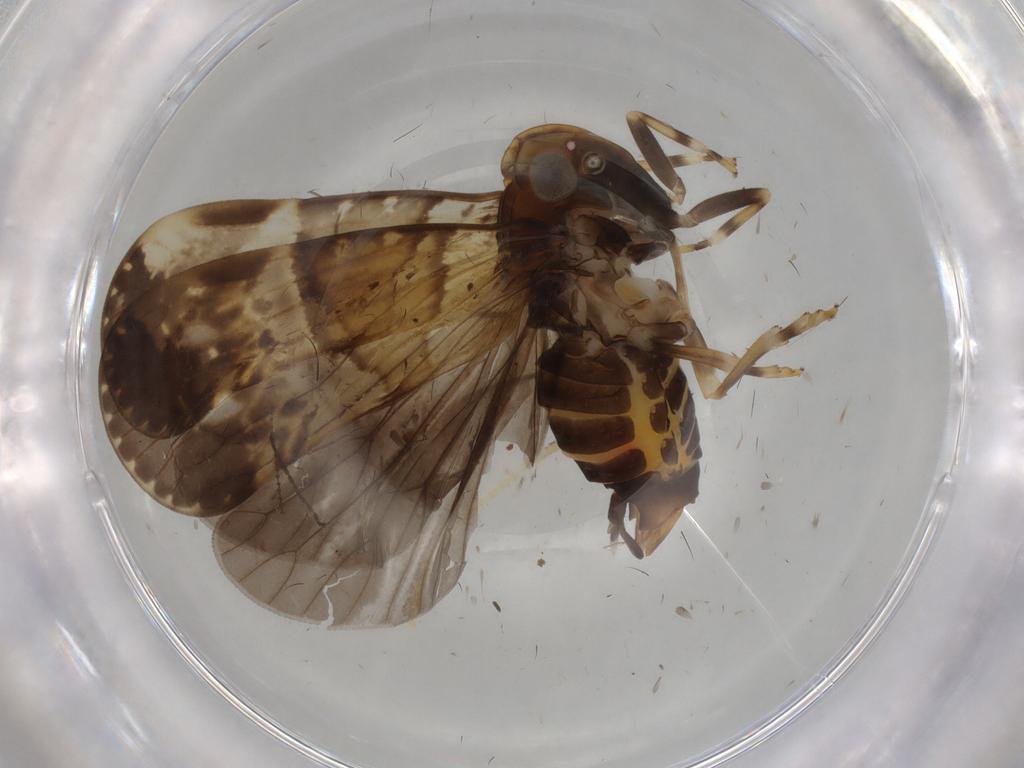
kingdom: Animalia
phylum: Arthropoda
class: Insecta
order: Hemiptera
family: Cixiidae
